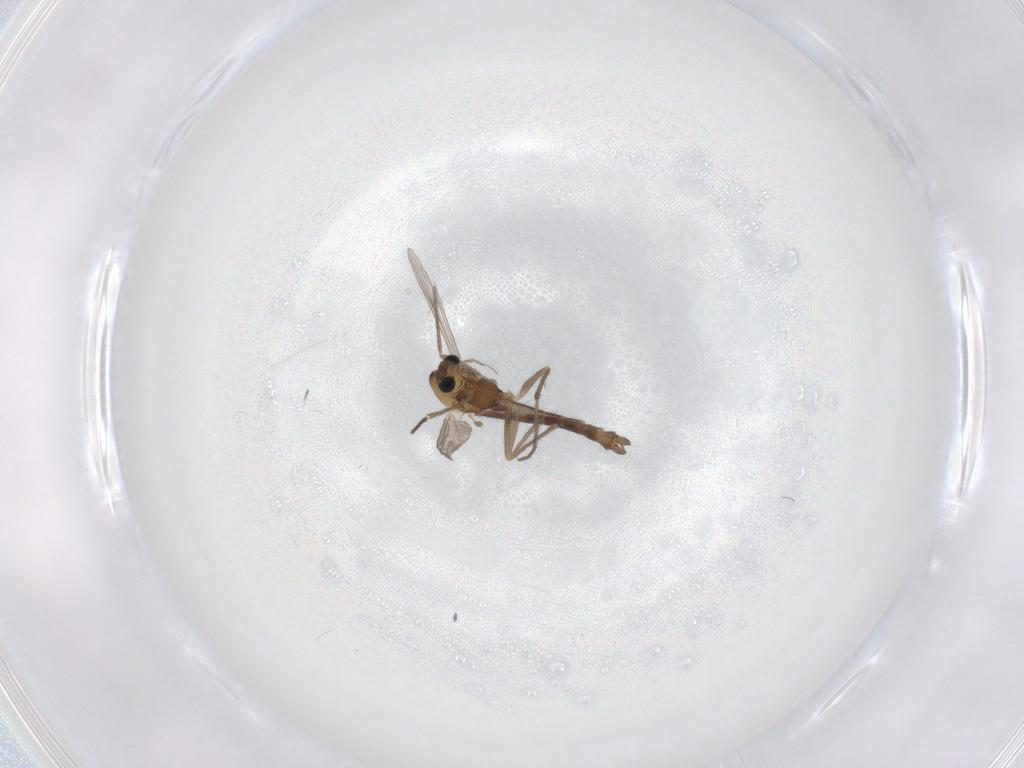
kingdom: Animalia
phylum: Arthropoda
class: Insecta
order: Diptera
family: Chironomidae
